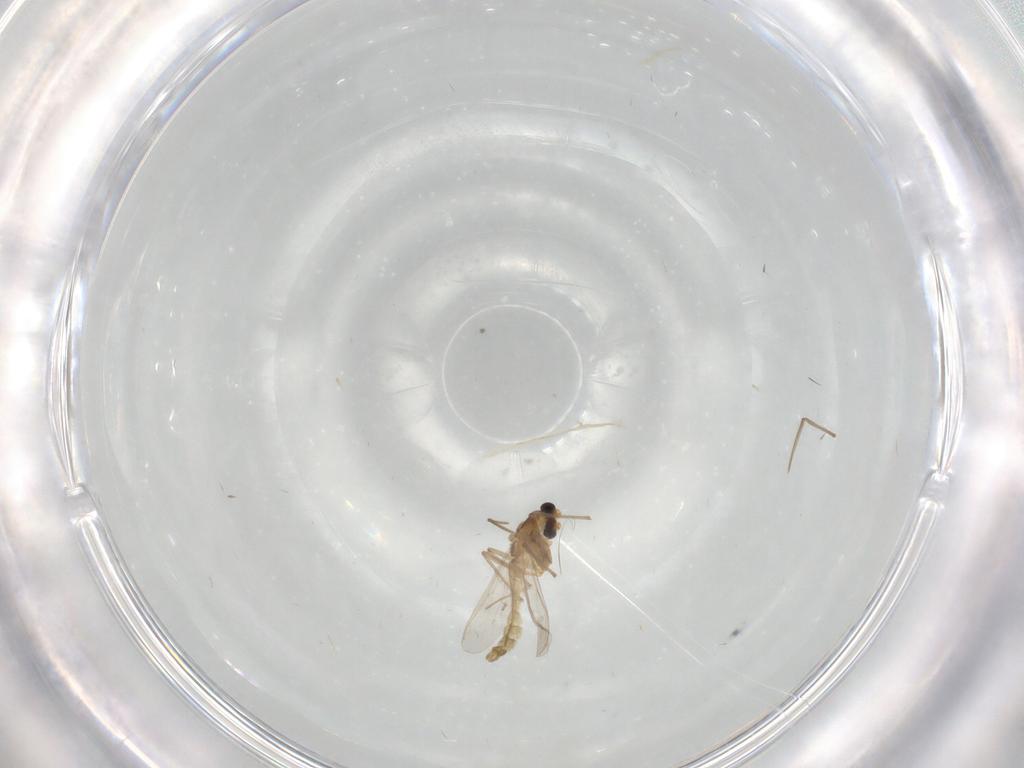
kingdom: Animalia
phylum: Arthropoda
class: Insecta
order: Diptera
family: Cecidomyiidae
